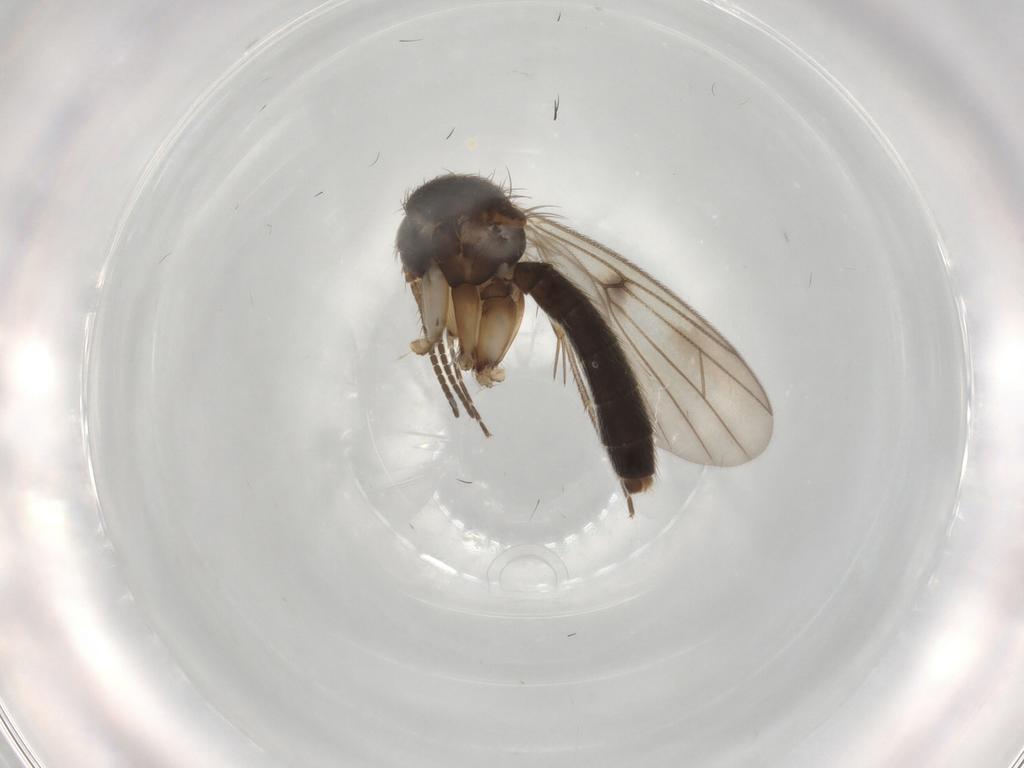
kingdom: Animalia
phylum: Arthropoda
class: Insecta
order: Diptera
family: Mycetophilidae
